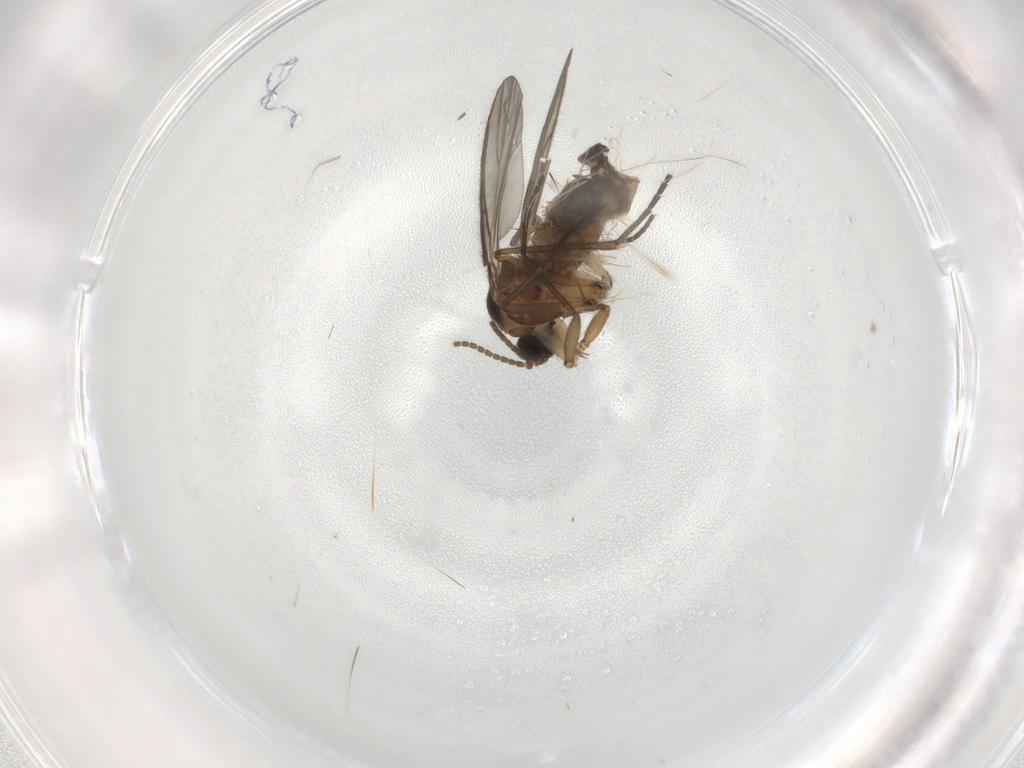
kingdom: Animalia
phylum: Arthropoda
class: Insecta
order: Diptera
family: Sciaridae
